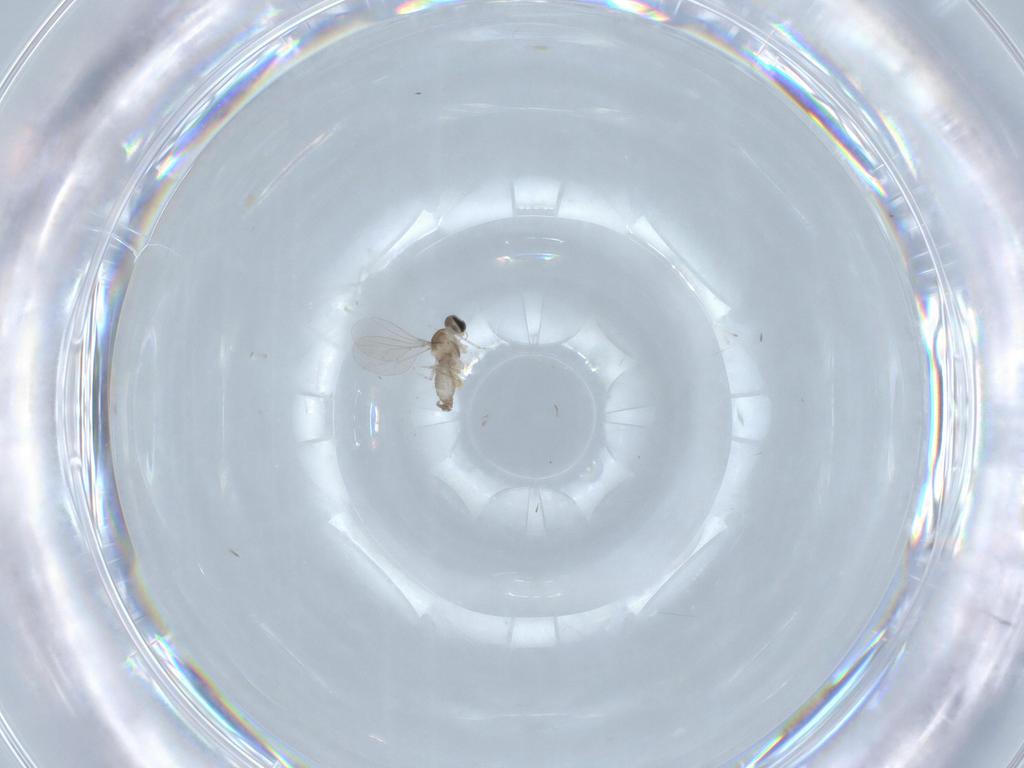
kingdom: Animalia
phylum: Arthropoda
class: Insecta
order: Diptera
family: Cecidomyiidae
